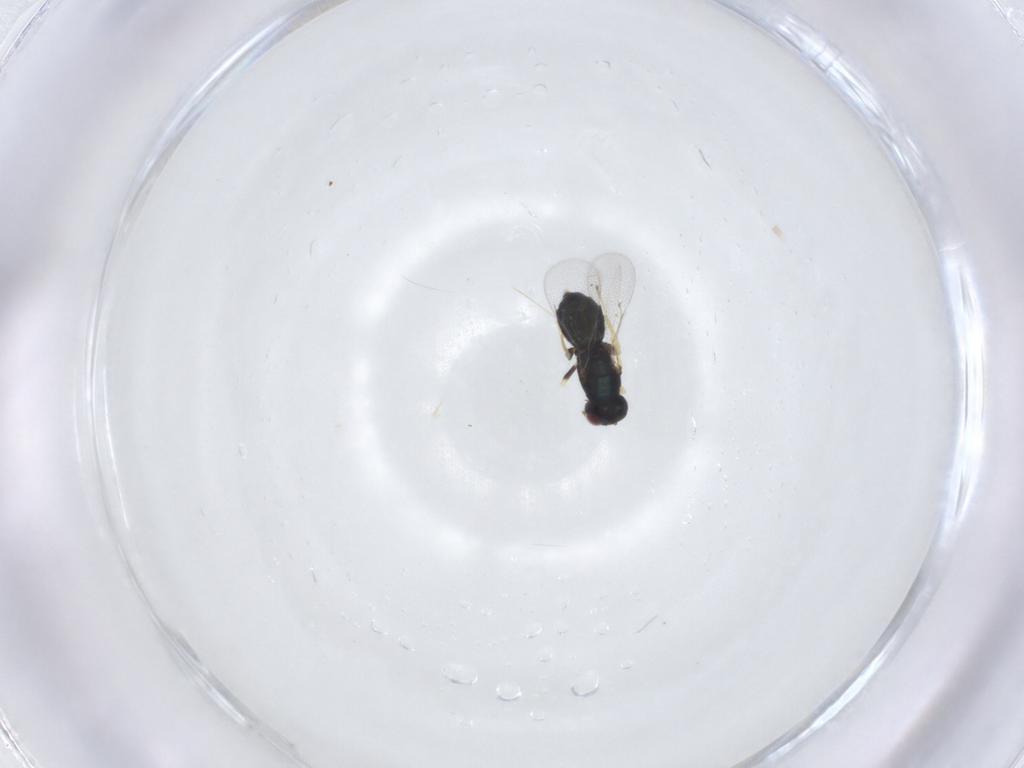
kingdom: Animalia
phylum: Arthropoda
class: Insecta
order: Hymenoptera
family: Eulophidae
